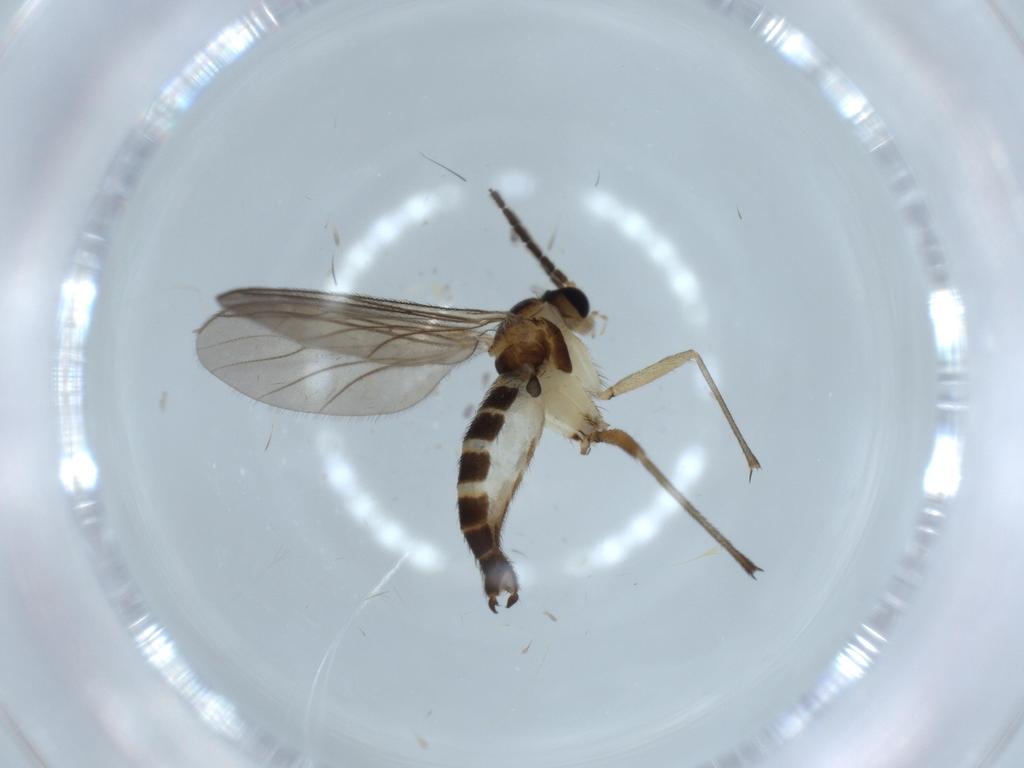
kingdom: Animalia
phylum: Arthropoda
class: Insecta
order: Diptera
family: Sciaridae
